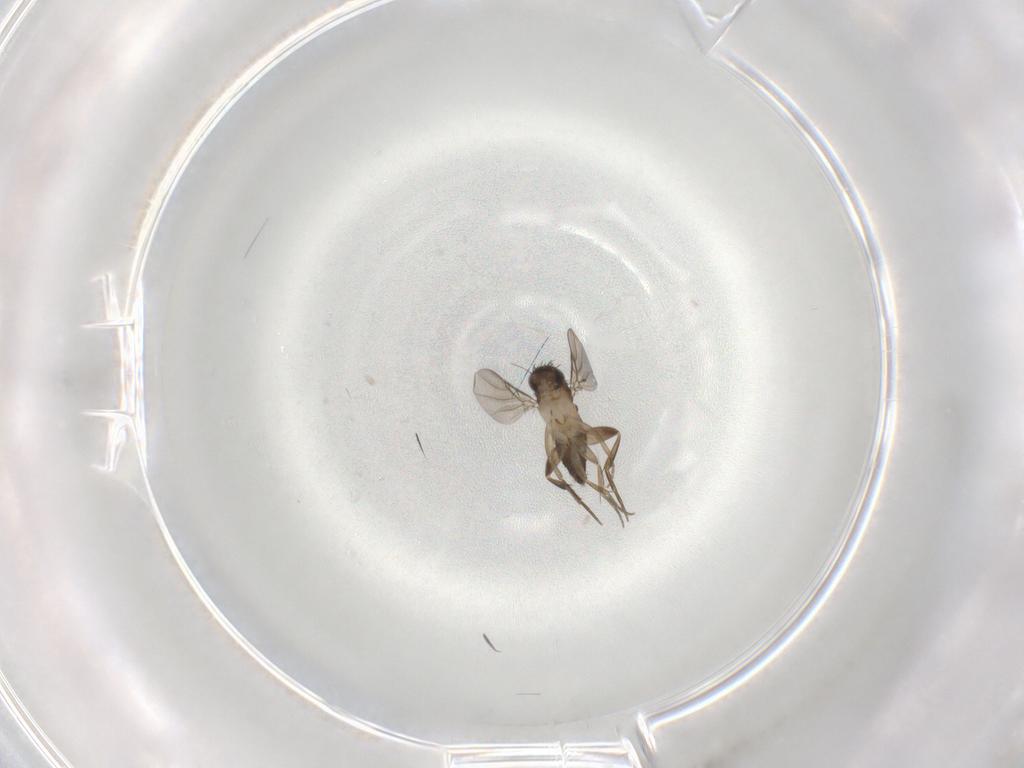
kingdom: Animalia
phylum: Arthropoda
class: Insecta
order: Diptera
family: Phoridae
